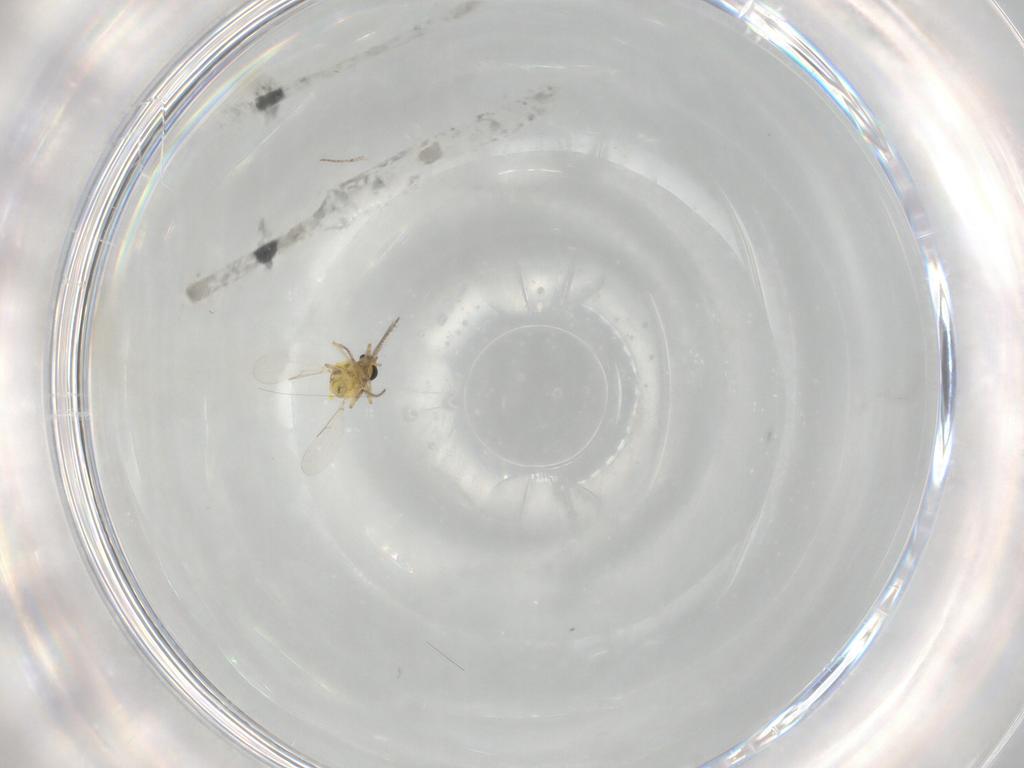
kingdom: Animalia
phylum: Arthropoda
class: Insecta
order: Diptera
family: Ceratopogonidae
